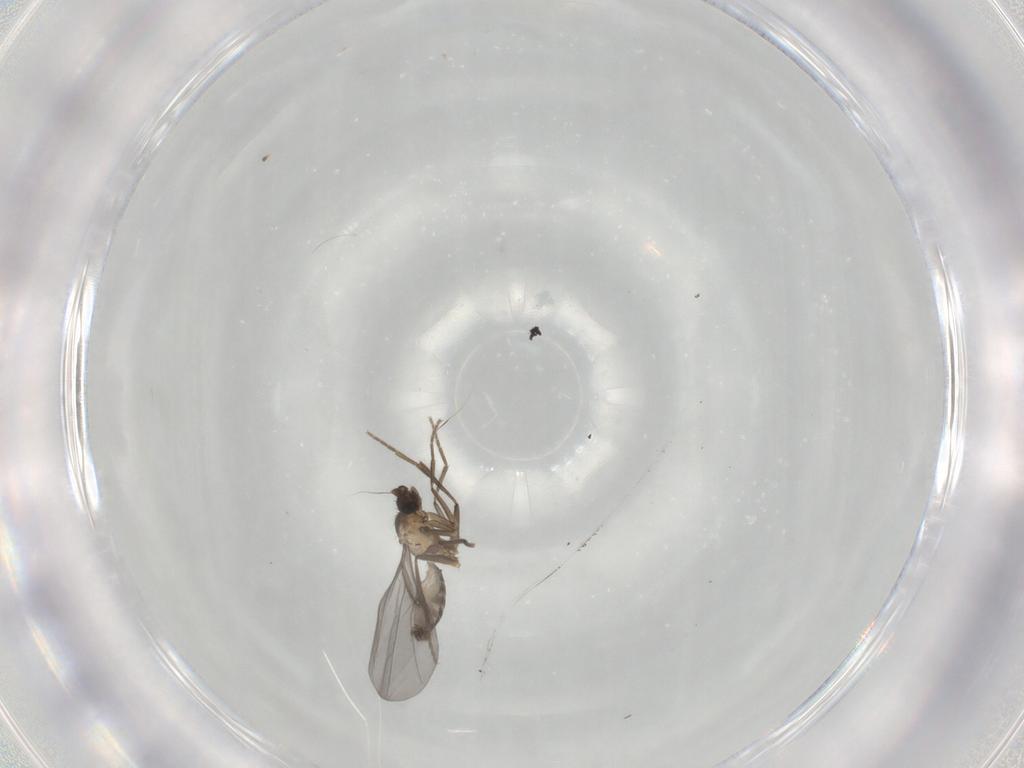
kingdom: Animalia
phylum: Arthropoda
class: Insecta
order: Diptera
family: Phoridae
